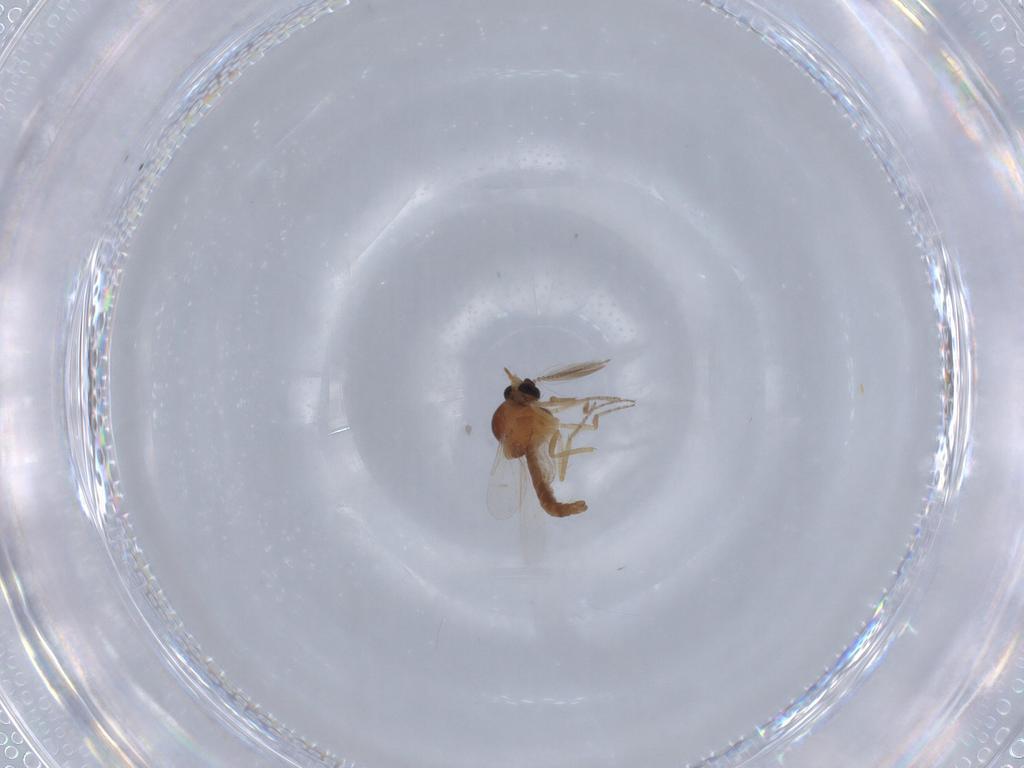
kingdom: Animalia
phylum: Arthropoda
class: Insecta
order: Diptera
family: Ceratopogonidae
